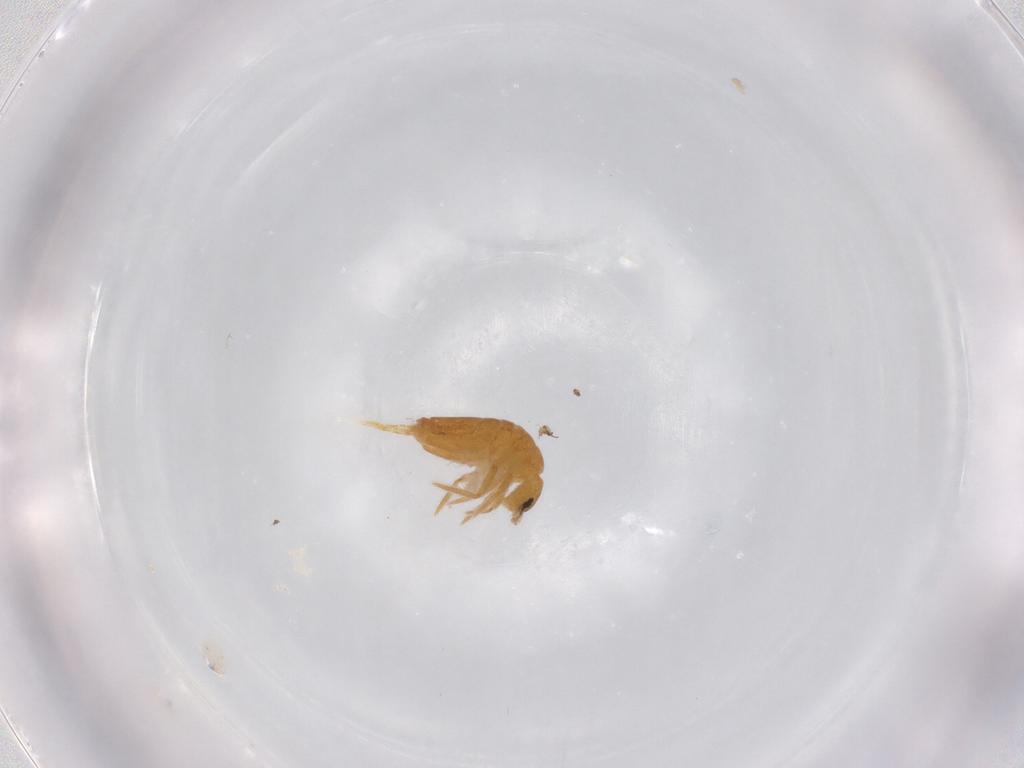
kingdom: Animalia
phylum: Arthropoda
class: Collembola
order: Entomobryomorpha
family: Entomobryidae
